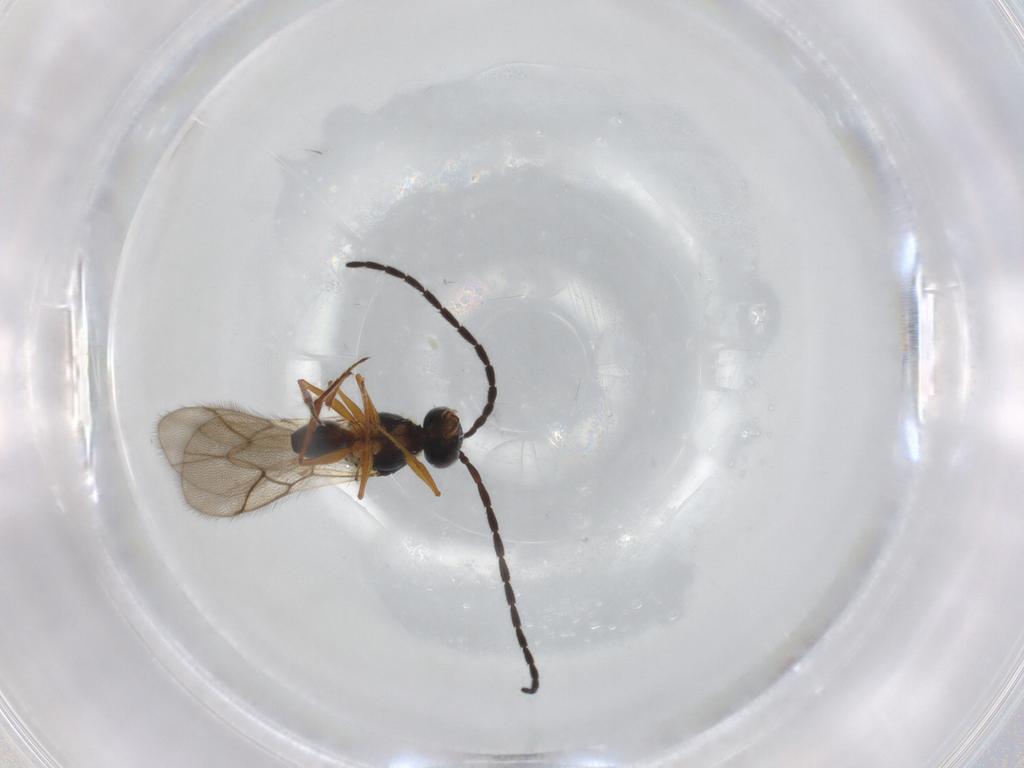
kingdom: Animalia
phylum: Arthropoda
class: Insecta
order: Hymenoptera
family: Figitidae
